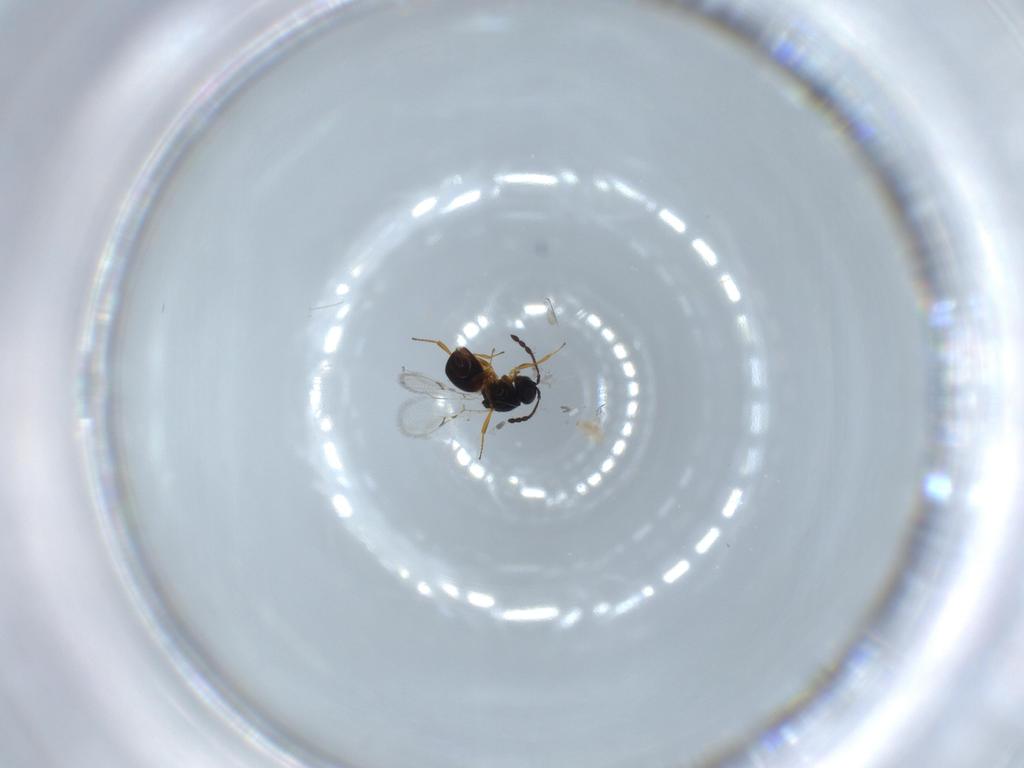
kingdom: Animalia
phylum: Arthropoda
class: Insecta
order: Hymenoptera
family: Figitidae
